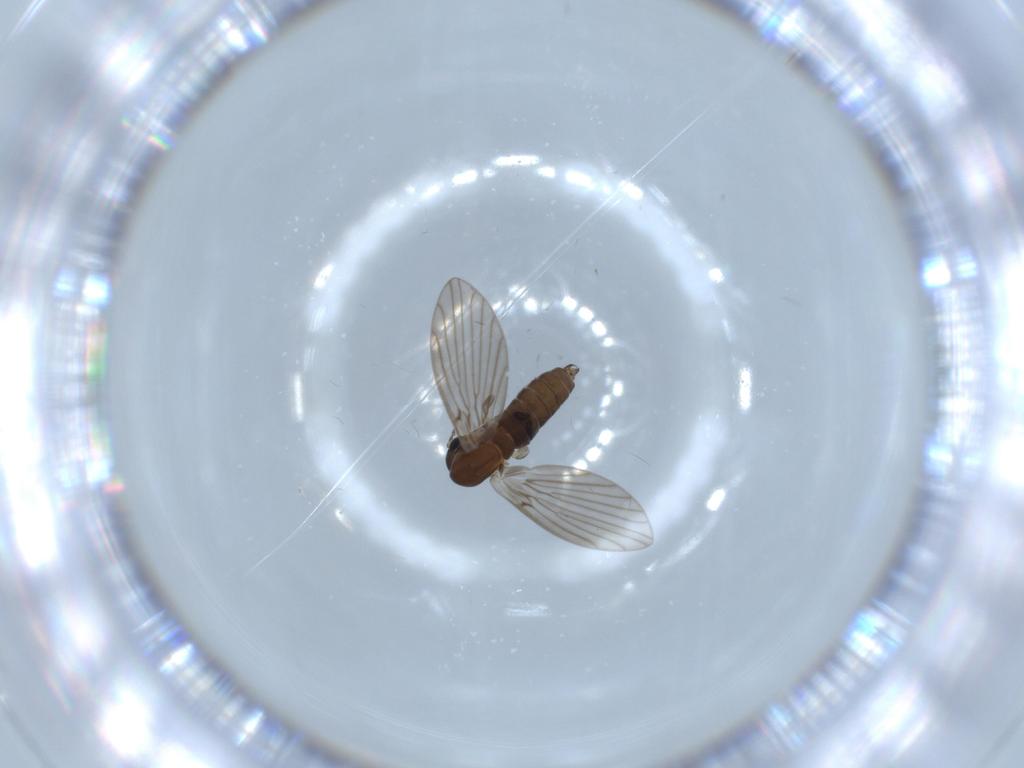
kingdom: Animalia
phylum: Arthropoda
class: Insecta
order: Diptera
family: Psychodidae
